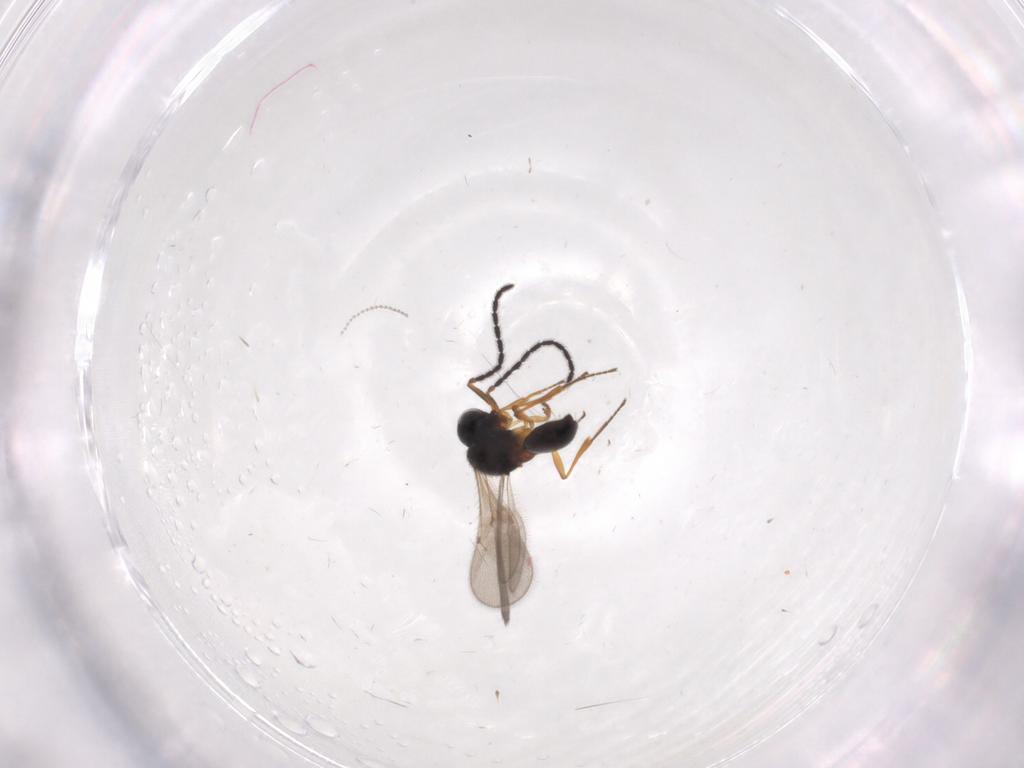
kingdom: Animalia
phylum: Arthropoda
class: Insecta
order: Hymenoptera
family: Scelionidae
